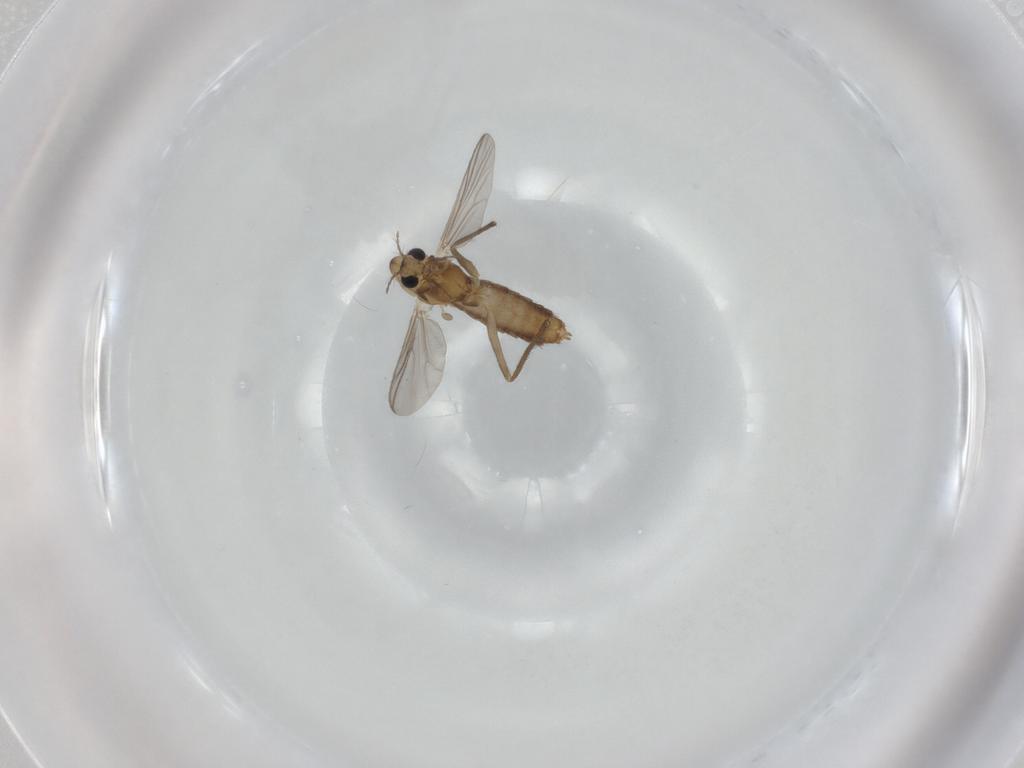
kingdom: Animalia
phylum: Arthropoda
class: Insecta
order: Diptera
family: Chironomidae
